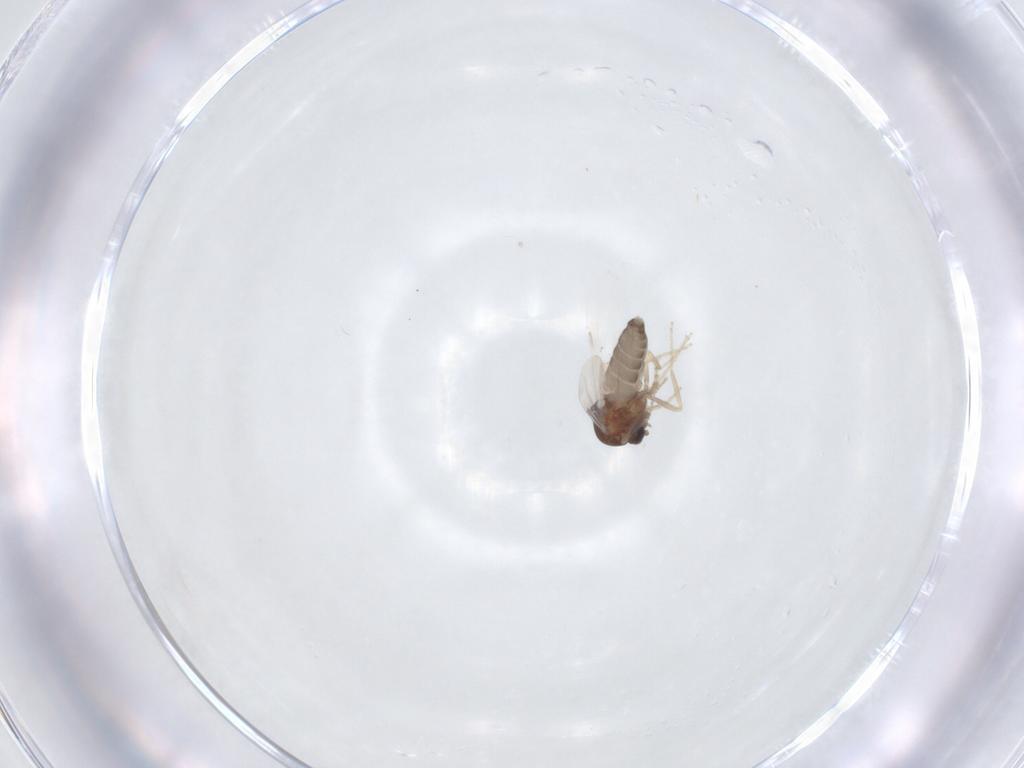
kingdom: Animalia
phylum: Arthropoda
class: Insecta
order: Diptera
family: Ceratopogonidae
